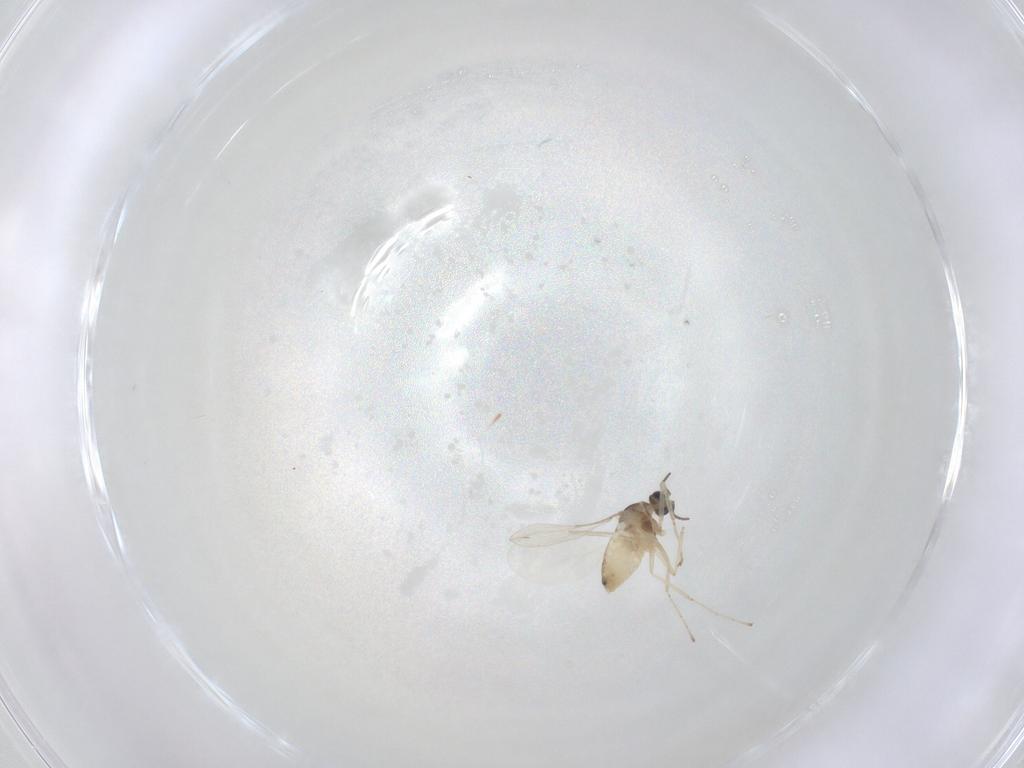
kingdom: Animalia
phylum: Arthropoda
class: Insecta
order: Diptera
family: Cecidomyiidae
